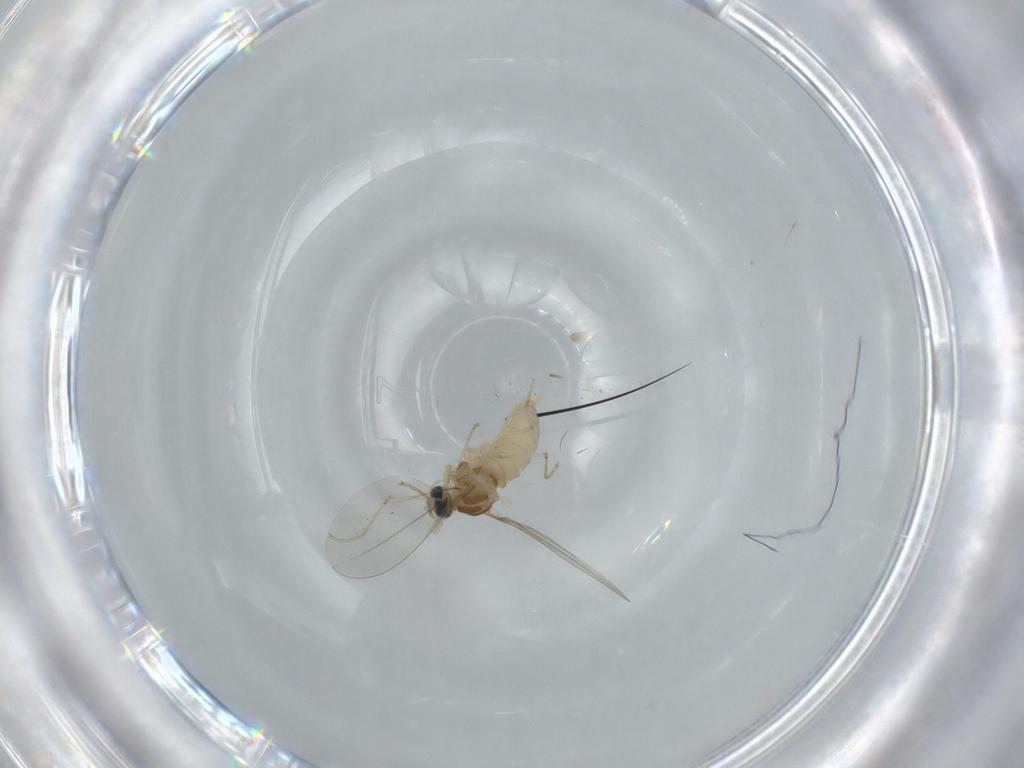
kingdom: Animalia
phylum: Arthropoda
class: Insecta
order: Diptera
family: Cecidomyiidae
